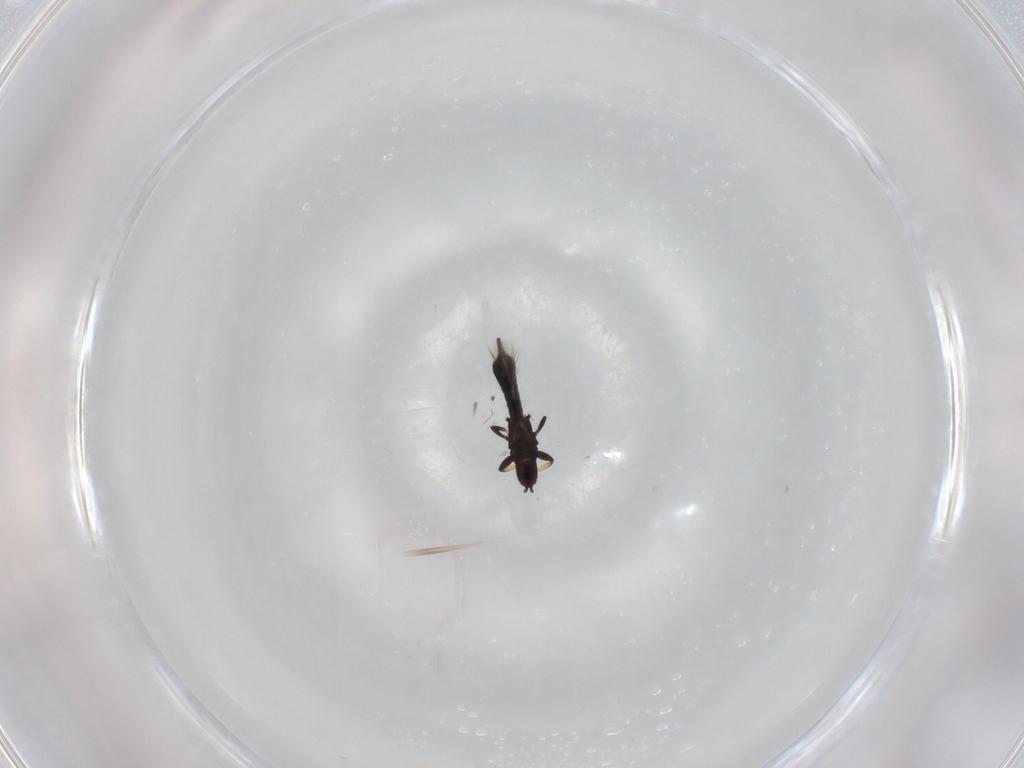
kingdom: Animalia
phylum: Arthropoda
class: Insecta
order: Thysanoptera
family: Phlaeothripidae
